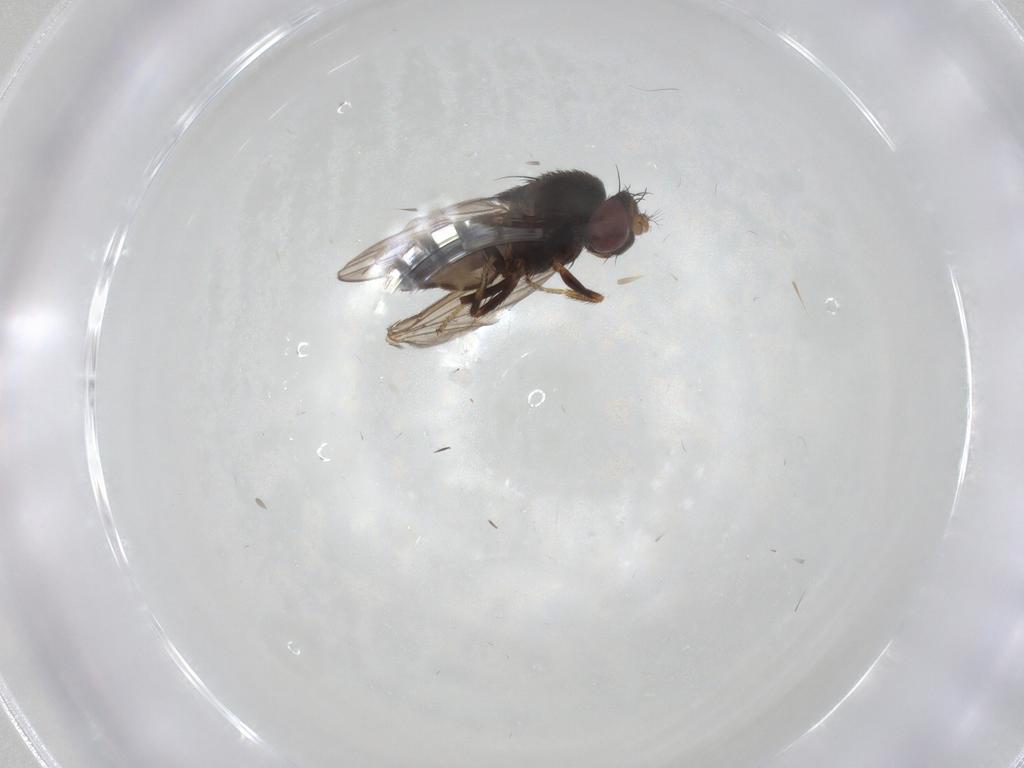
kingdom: Animalia
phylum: Arthropoda
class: Insecta
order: Diptera
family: Ephydridae
